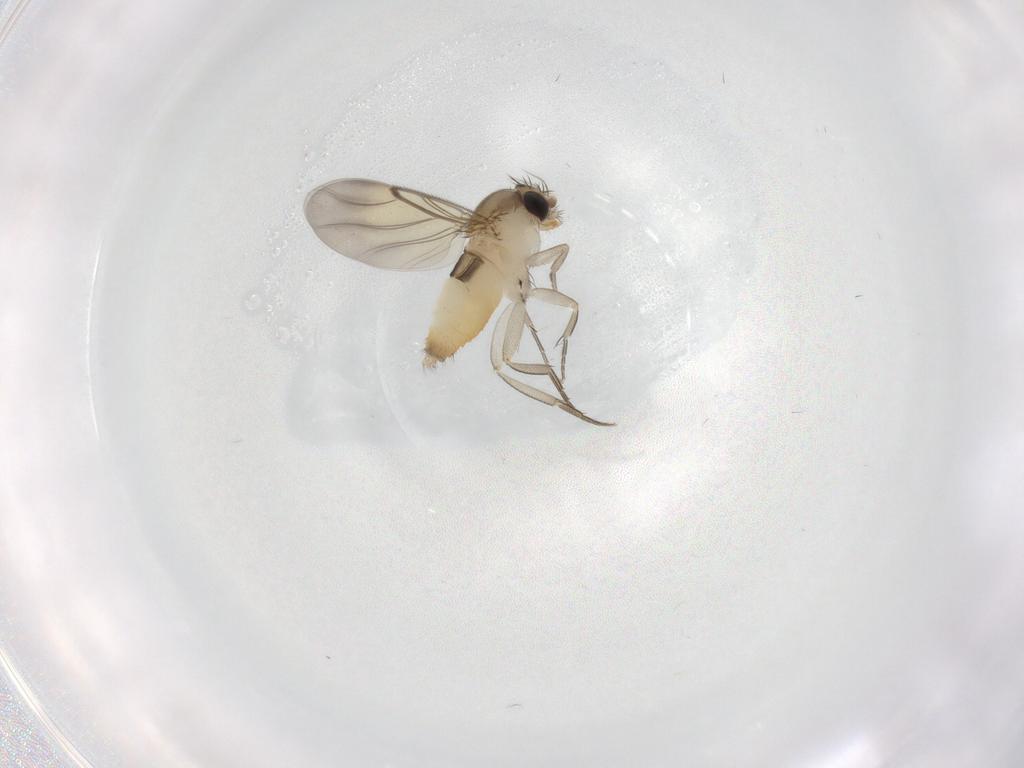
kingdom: Animalia
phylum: Arthropoda
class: Insecta
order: Diptera
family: Phoridae
